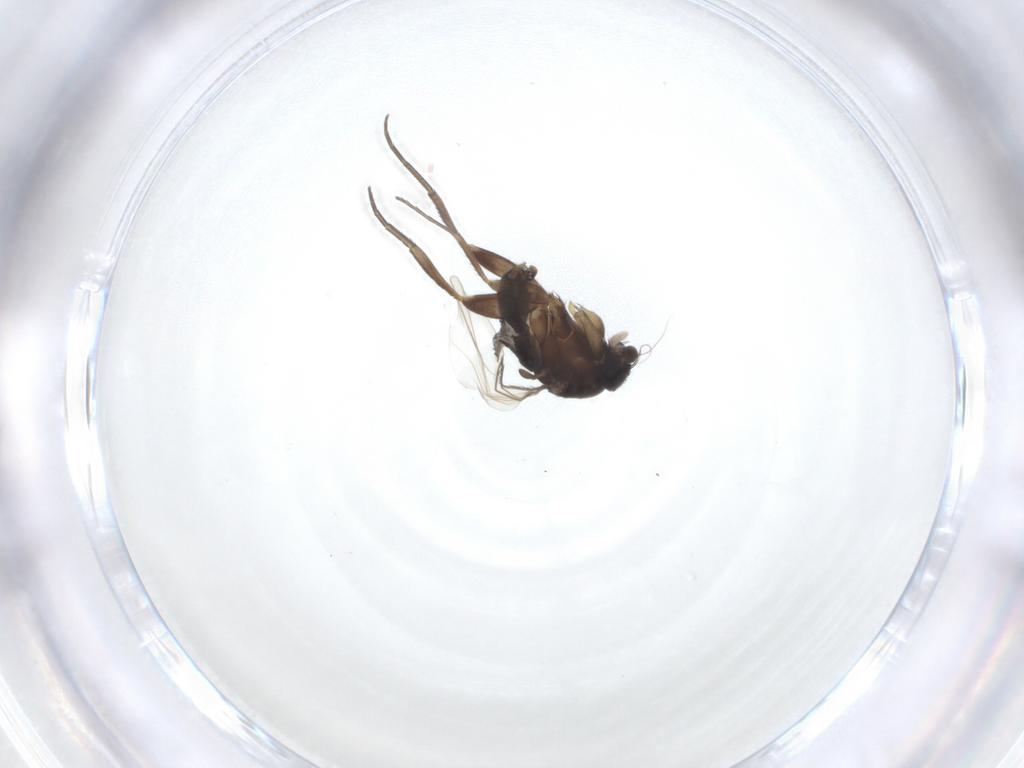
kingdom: Animalia
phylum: Arthropoda
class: Insecta
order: Diptera
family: Phoridae
